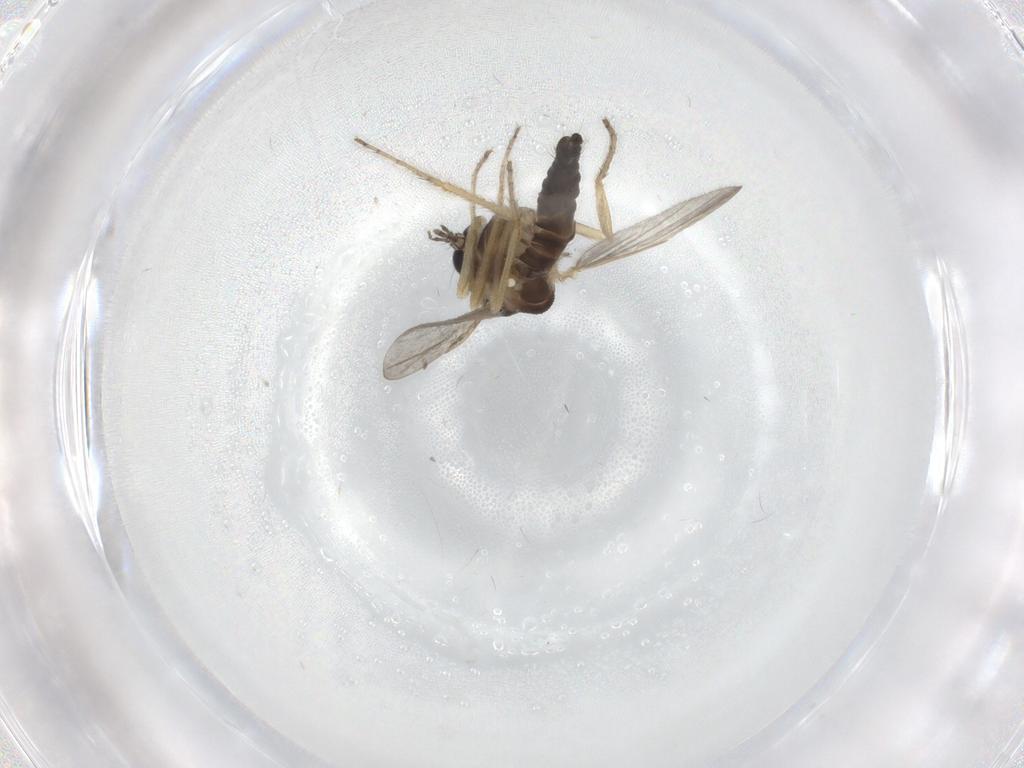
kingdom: Animalia
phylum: Arthropoda
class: Insecta
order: Diptera
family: Ceratopogonidae
